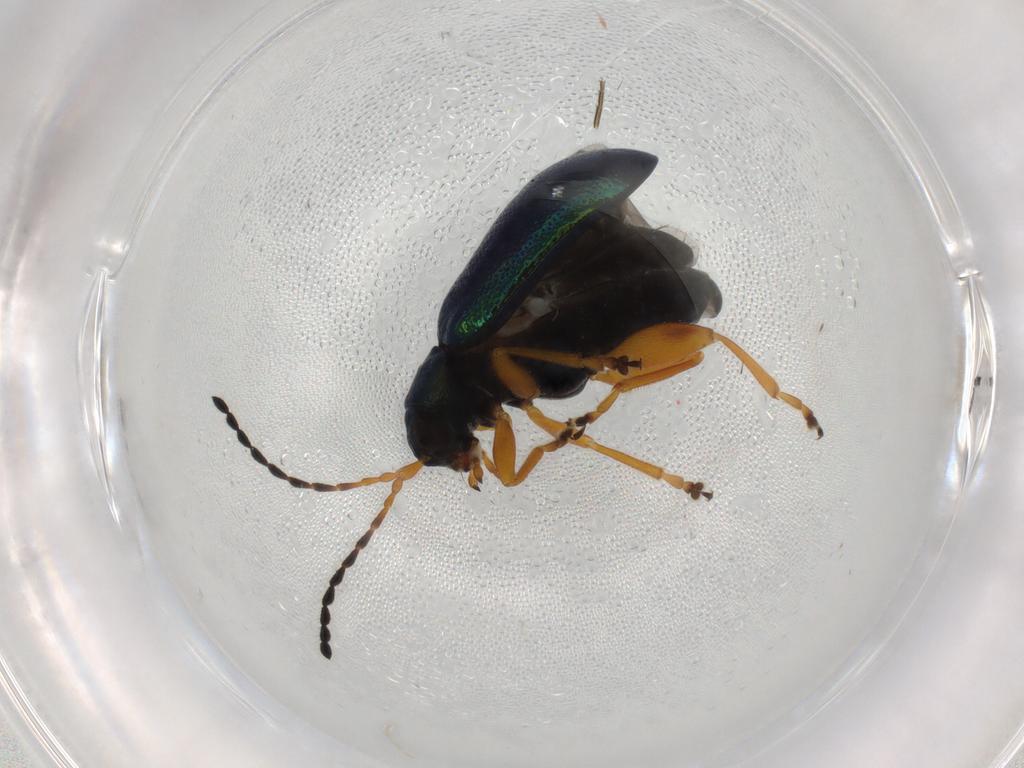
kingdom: Animalia
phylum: Arthropoda
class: Insecta
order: Coleoptera
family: Chrysomelidae
